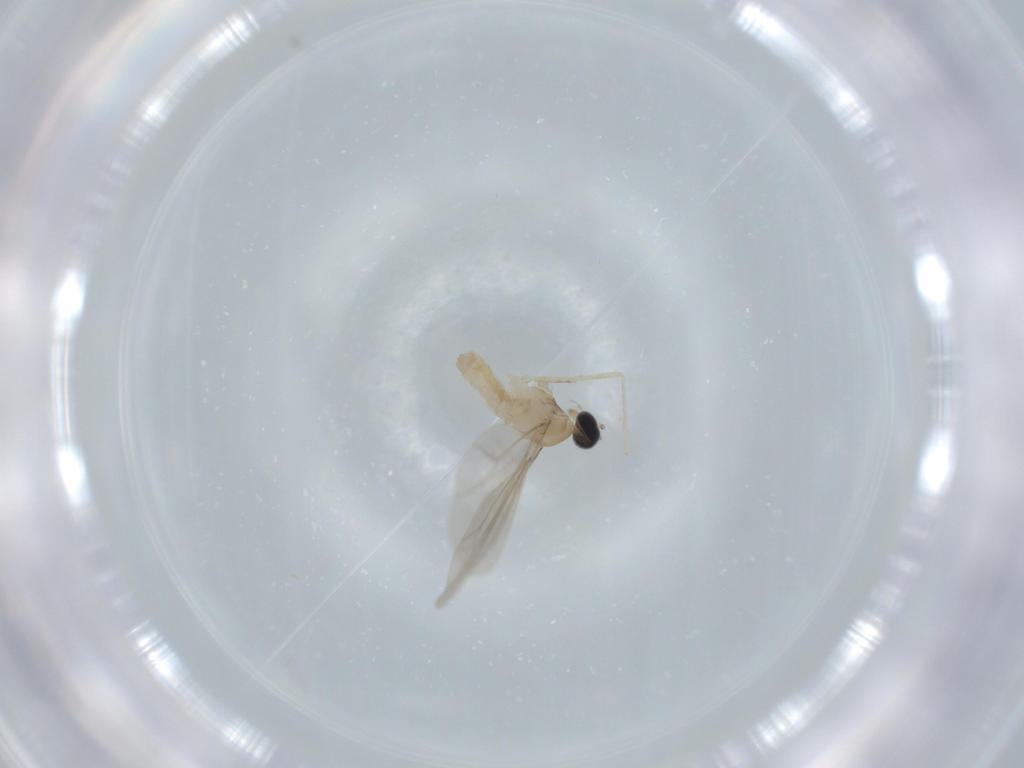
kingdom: Animalia
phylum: Arthropoda
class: Insecta
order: Diptera
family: Cecidomyiidae
